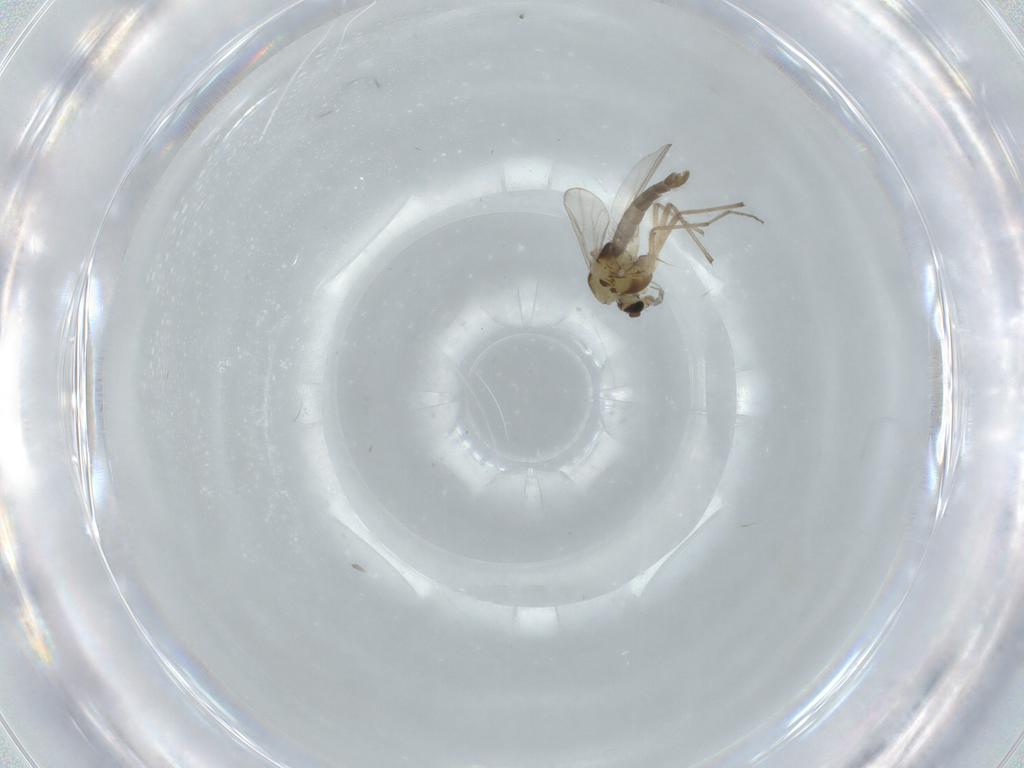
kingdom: Animalia
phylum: Arthropoda
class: Insecta
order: Diptera
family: Chironomidae
